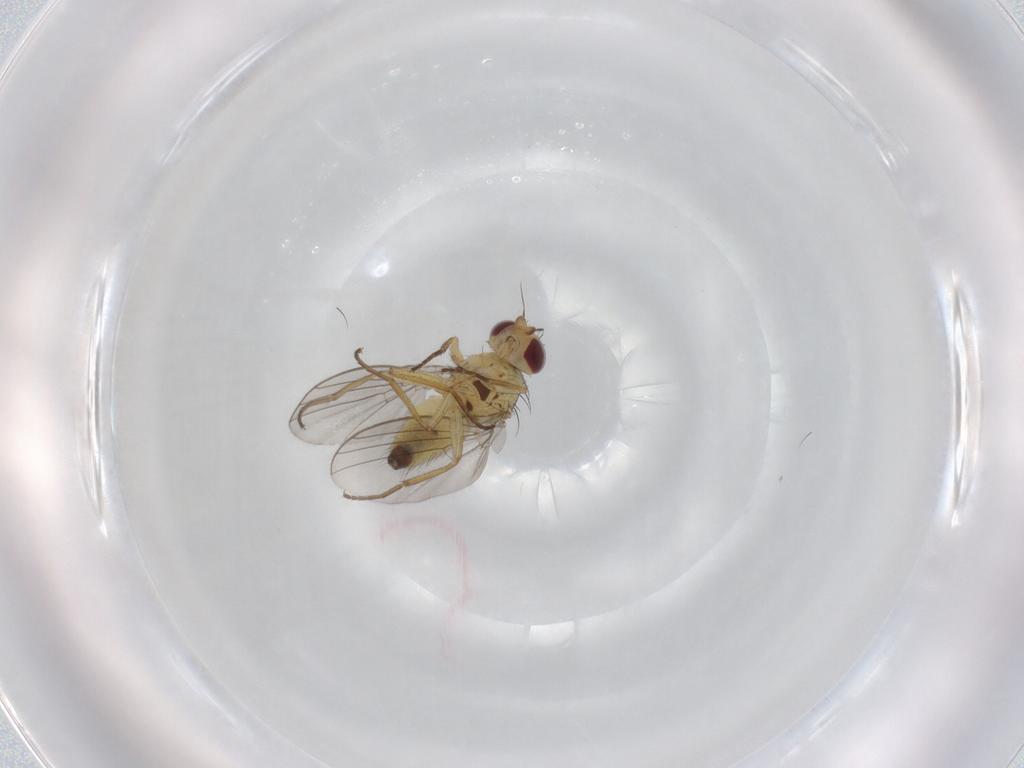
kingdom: Animalia
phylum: Arthropoda
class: Insecta
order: Diptera
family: Agromyzidae
